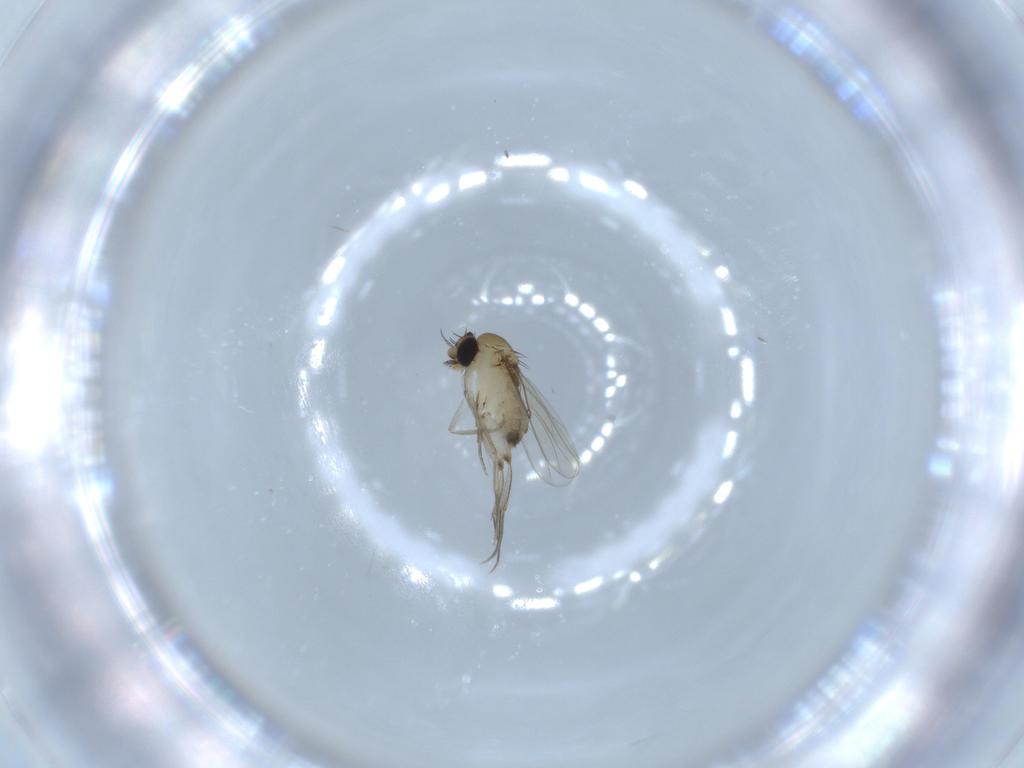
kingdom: Animalia
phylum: Arthropoda
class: Insecta
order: Diptera
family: Phoridae
